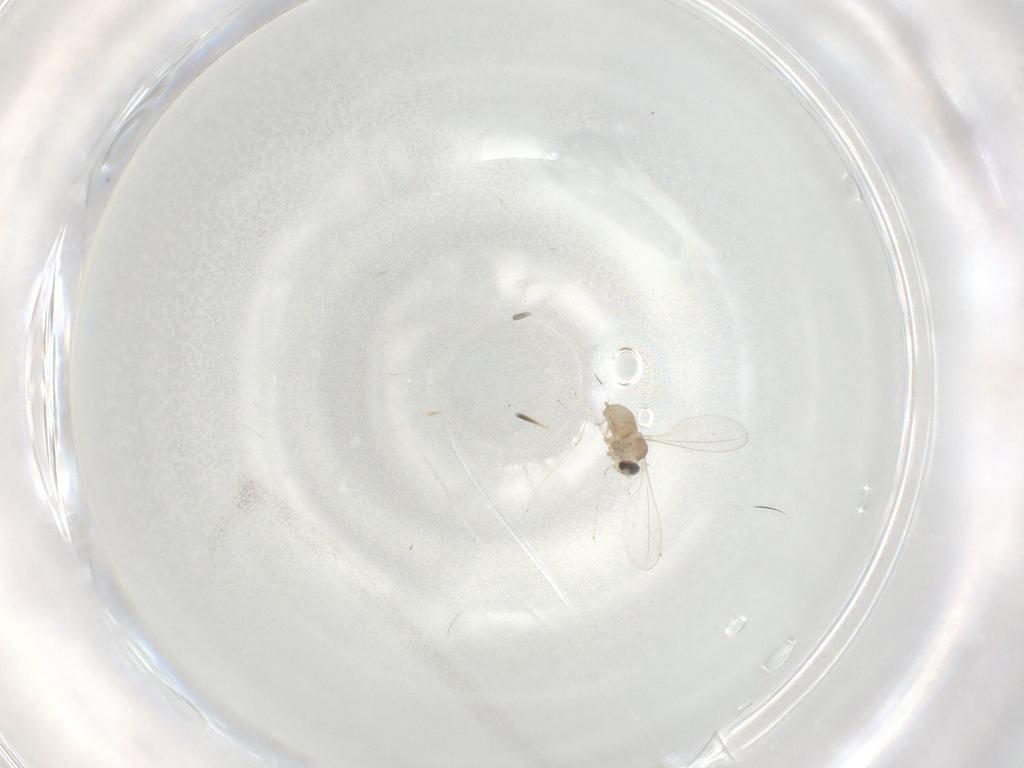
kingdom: Animalia
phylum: Arthropoda
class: Insecta
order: Diptera
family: Cecidomyiidae
